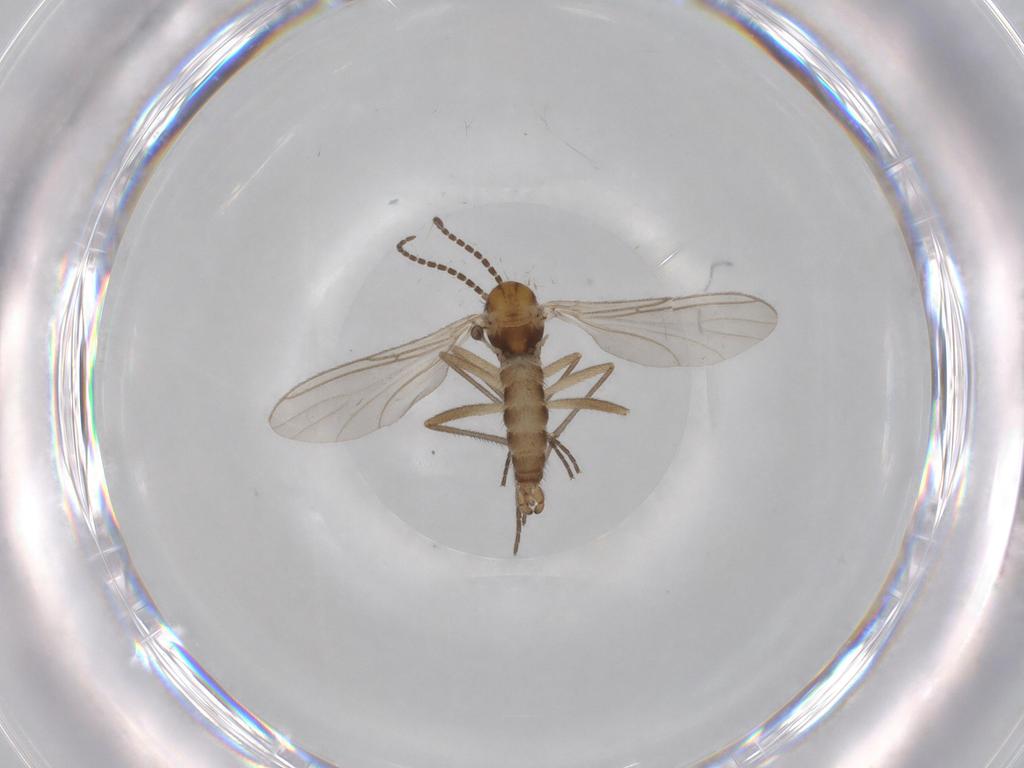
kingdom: Animalia
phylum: Arthropoda
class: Insecta
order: Diptera
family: Sciaridae
